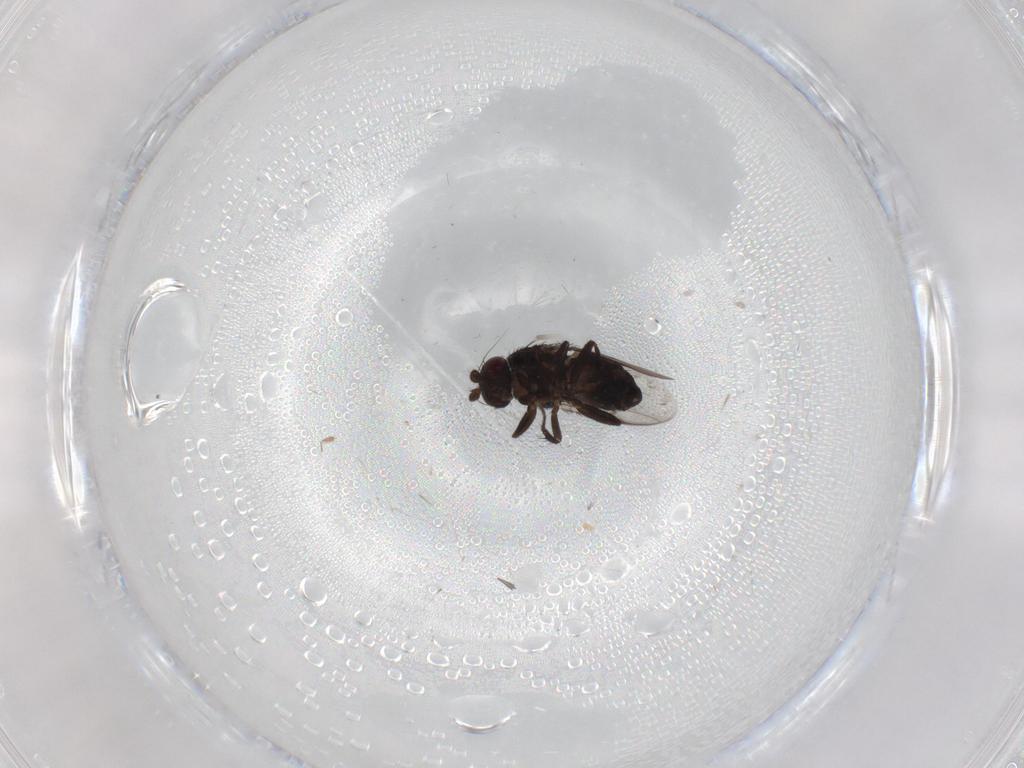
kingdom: Animalia
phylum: Arthropoda
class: Insecta
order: Diptera
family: Sphaeroceridae
